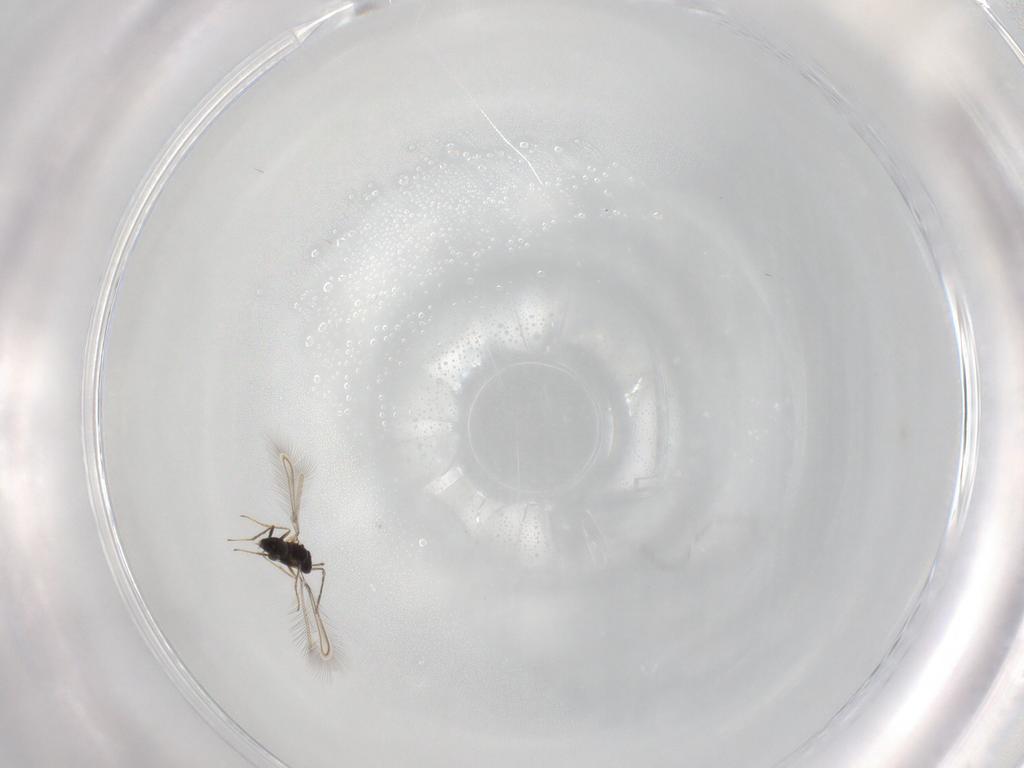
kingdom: Animalia
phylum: Arthropoda
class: Insecta
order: Hymenoptera
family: Mymaridae
